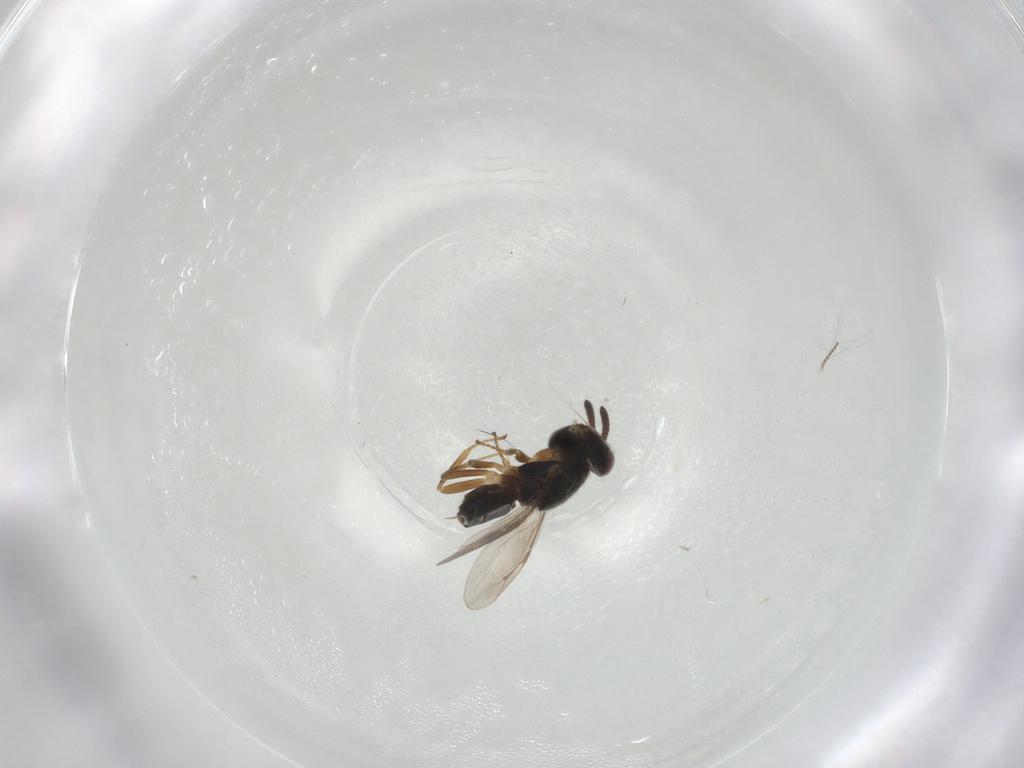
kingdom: Animalia
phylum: Arthropoda
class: Insecta
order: Hymenoptera
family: Pteromalidae
